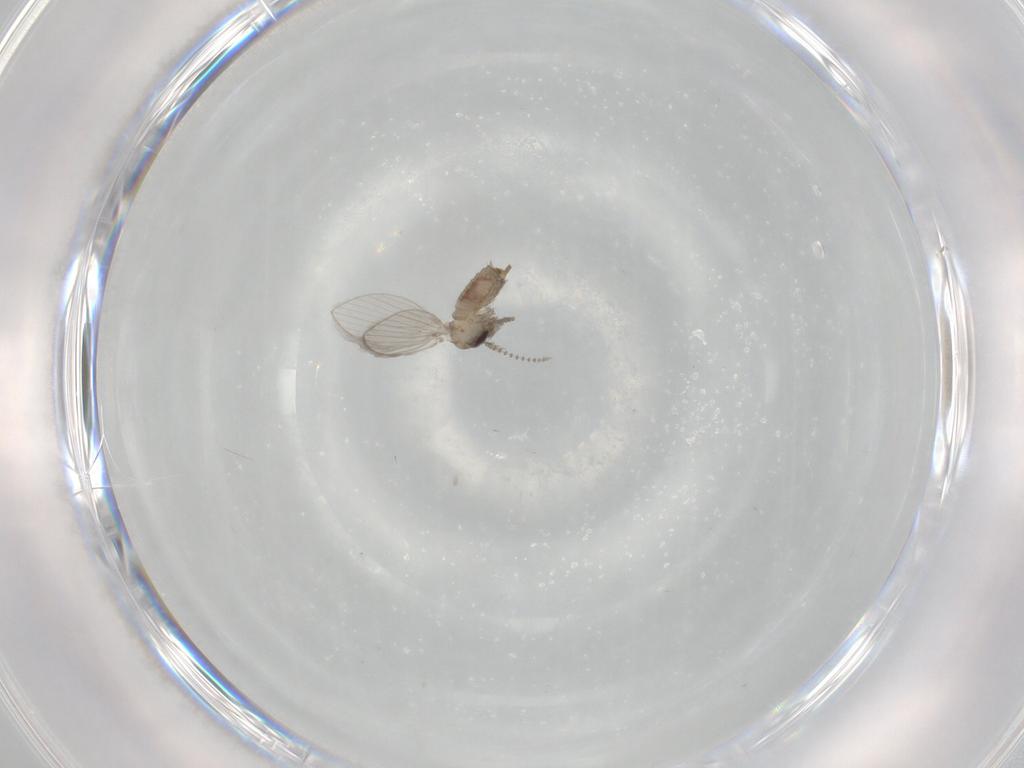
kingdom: Animalia
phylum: Arthropoda
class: Insecta
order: Diptera
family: Psychodidae
